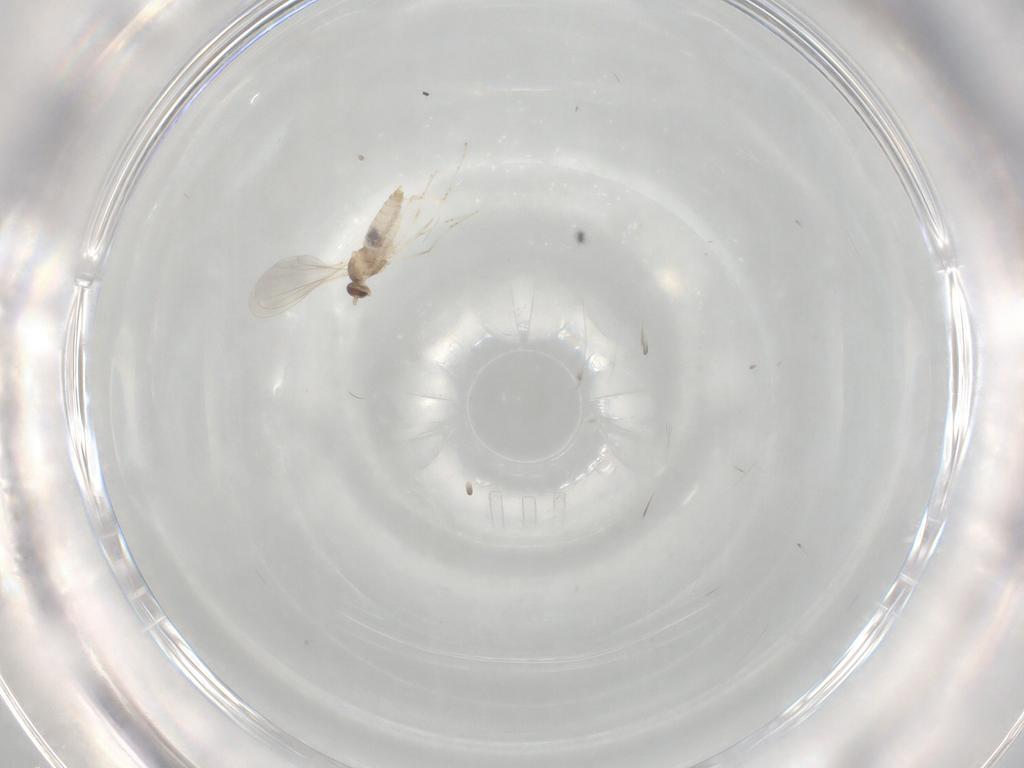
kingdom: Animalia
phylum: Arthropoda
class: Insecta
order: Diptera
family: Cecidomyiidae
